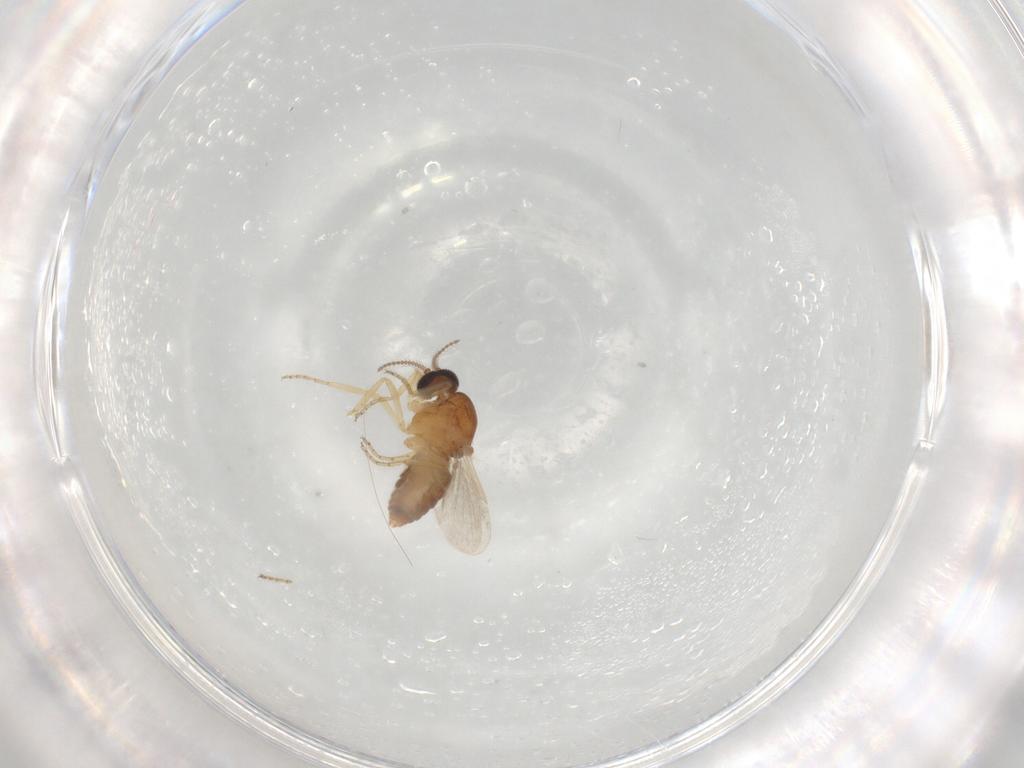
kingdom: Animalia
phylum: Arthropoda
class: Insecta
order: Diptera
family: Ceratopogonidae
